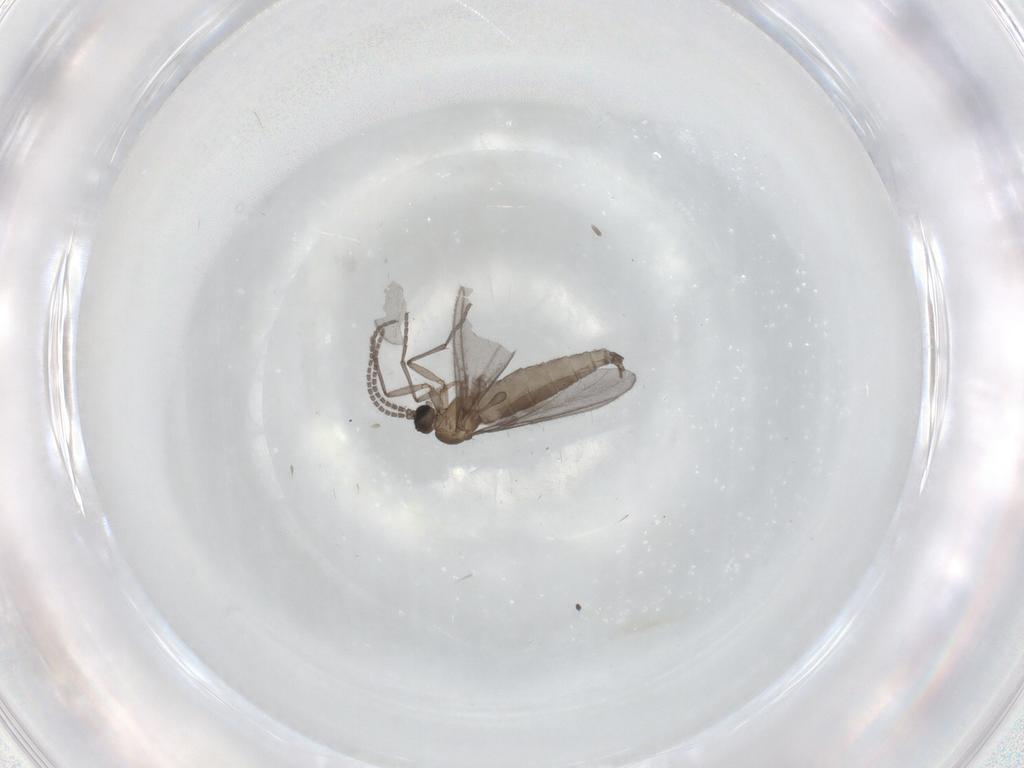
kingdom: Animalia
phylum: Arthropoda
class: Insecta
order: Diptera
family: Sciaridae
